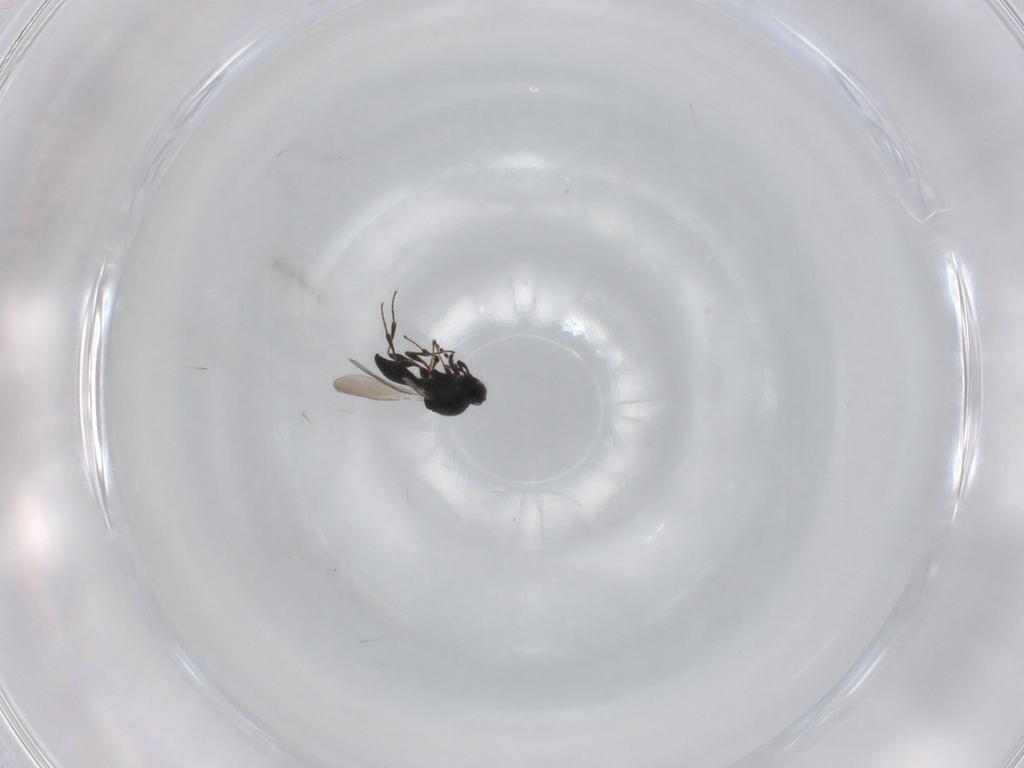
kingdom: Animalia
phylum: Arthropoda
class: Insecta
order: Hymenoptera
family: Platygastridae
